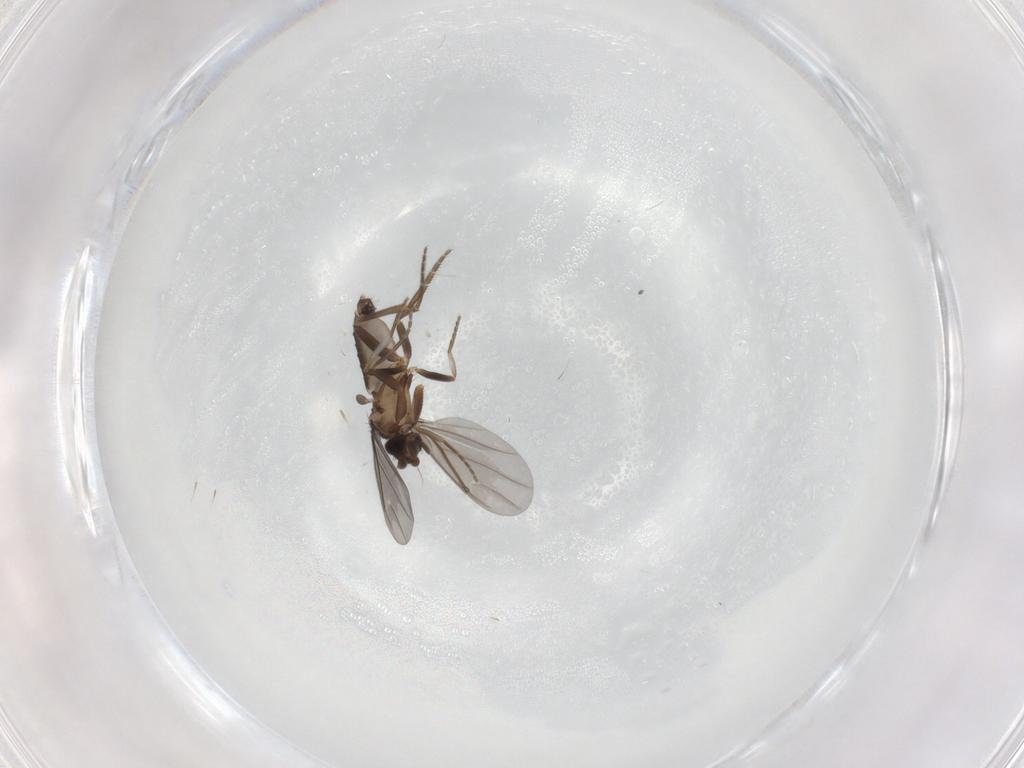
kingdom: Animalia
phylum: Arthropoda
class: Insecta
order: Diptera
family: Phoridae
